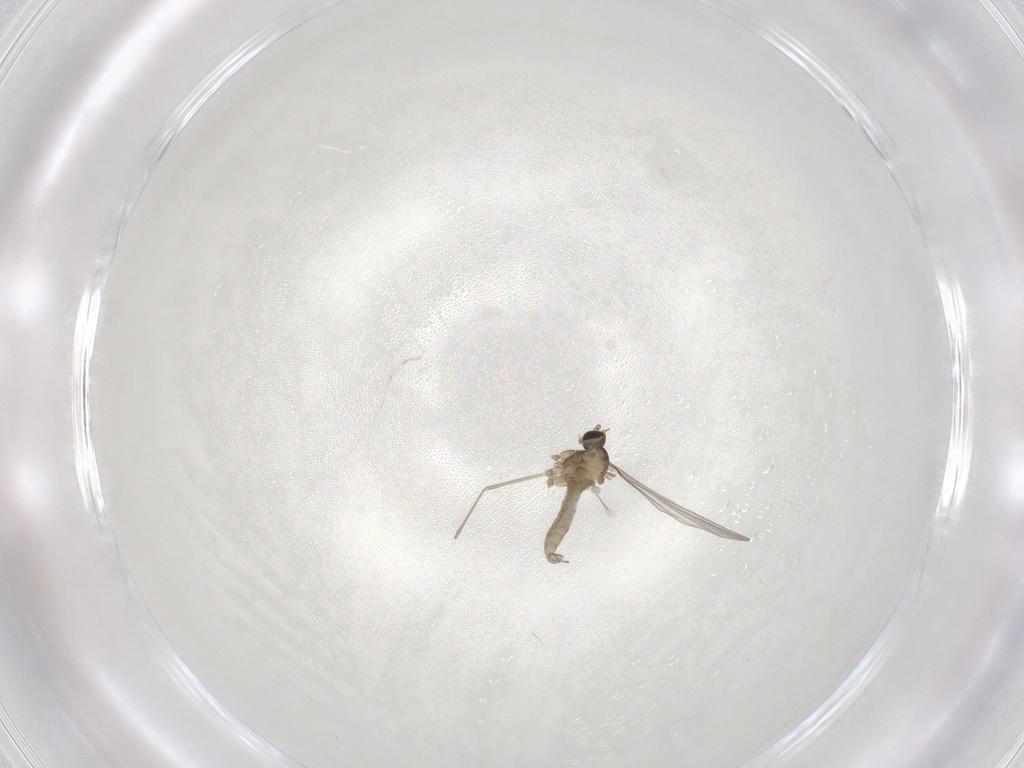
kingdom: Animalia
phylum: Arthropoda
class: Insecta
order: Diptera
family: Cecidomyiidae
